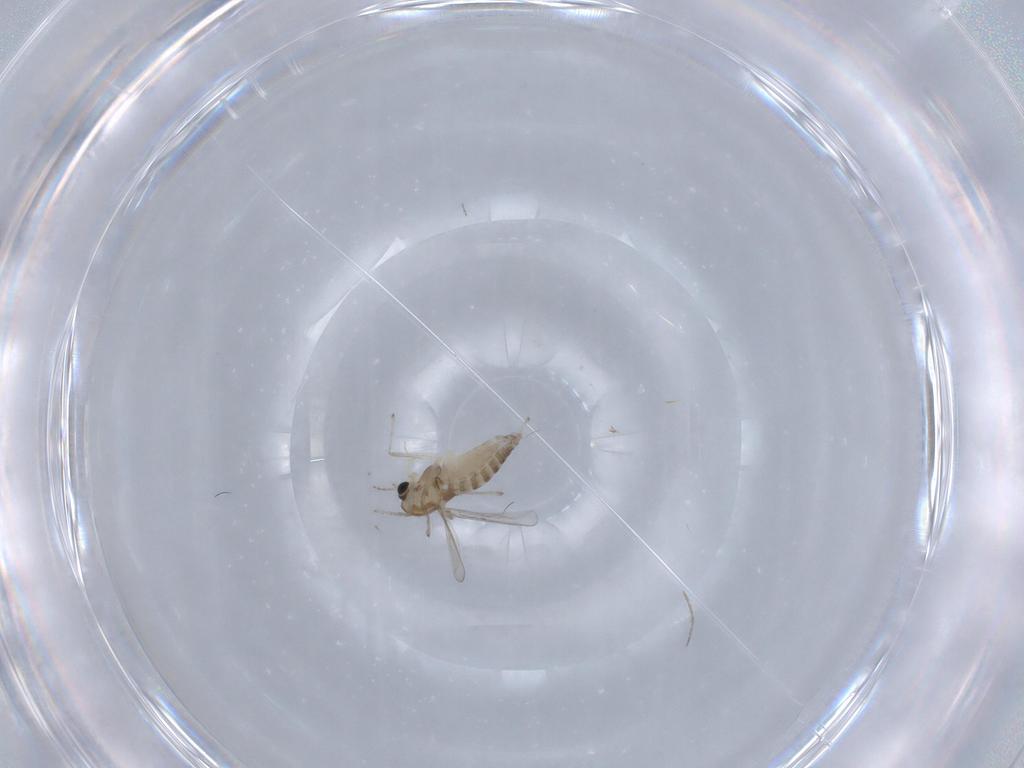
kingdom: Animalia
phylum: Arthropoda
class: Insecta
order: Diptera
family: Chironomidae
